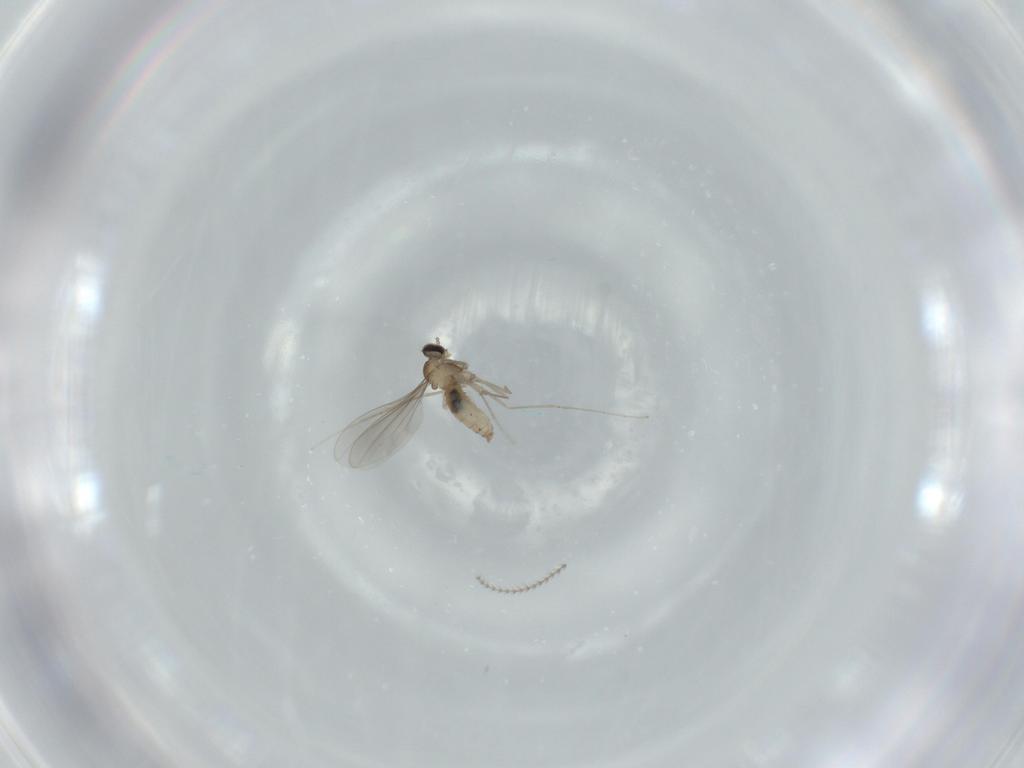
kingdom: Animalia
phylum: Arthropoda
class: Insecta
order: Diptera
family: Cecidomyiidae
